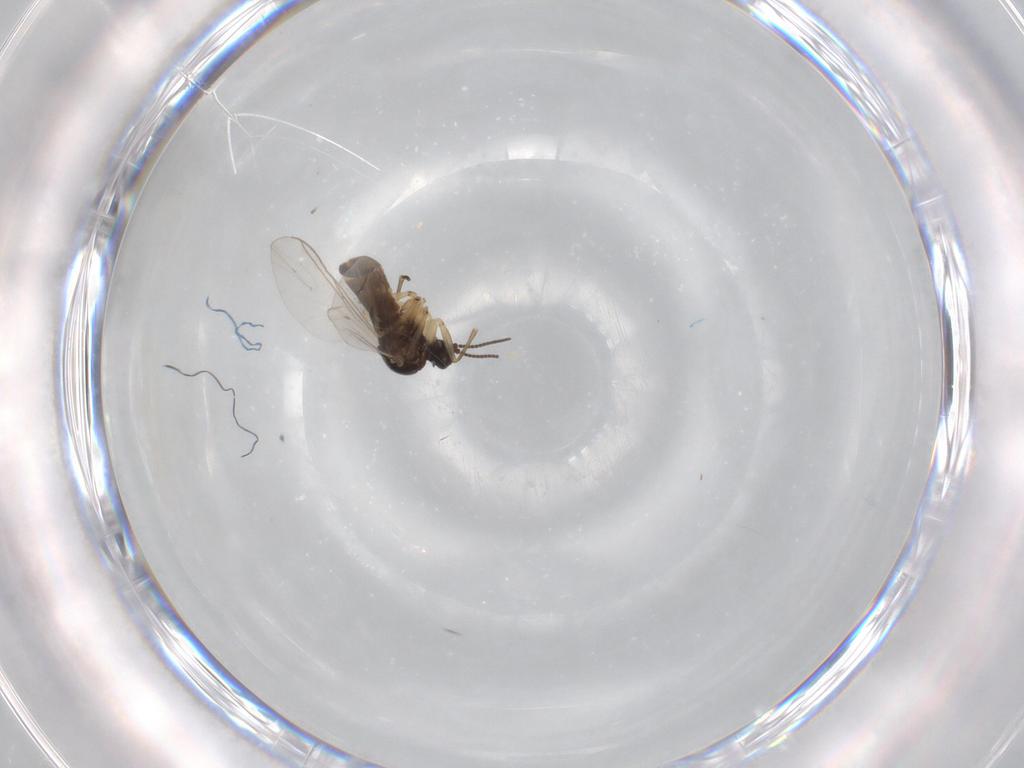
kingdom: Animalia
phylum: Arthropoda
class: Insecta
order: Diptera
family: Sciaridae
